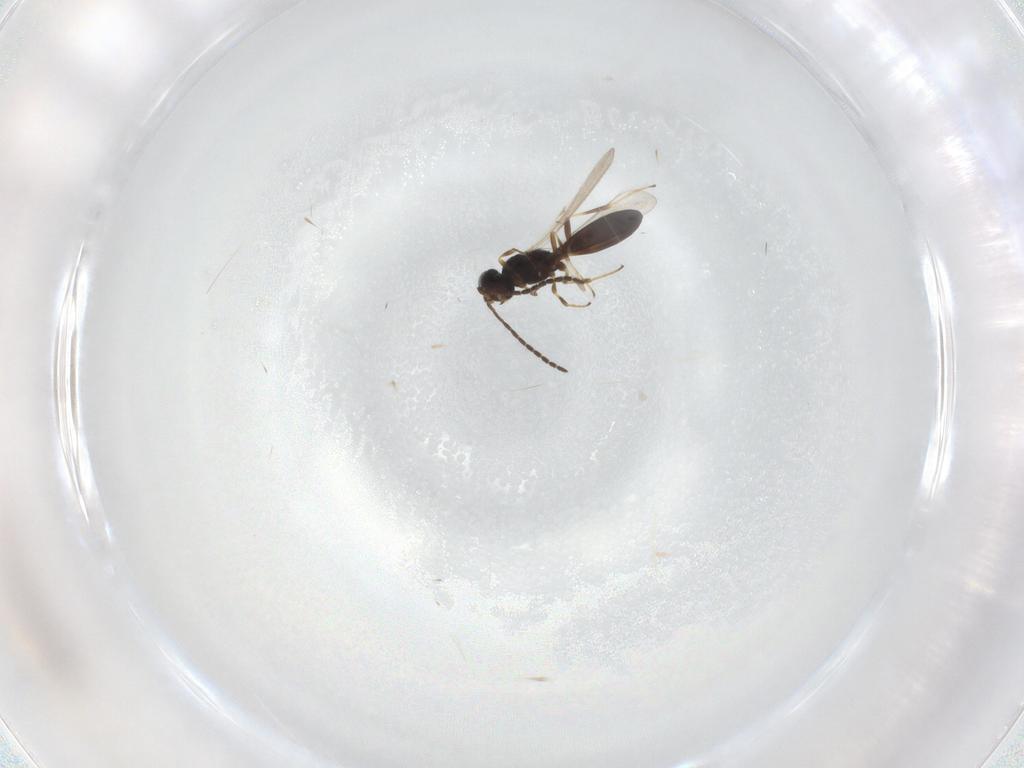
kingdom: Animalia
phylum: Arthropoda
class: Insecta
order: Hymenoptera
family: Scelionidae
